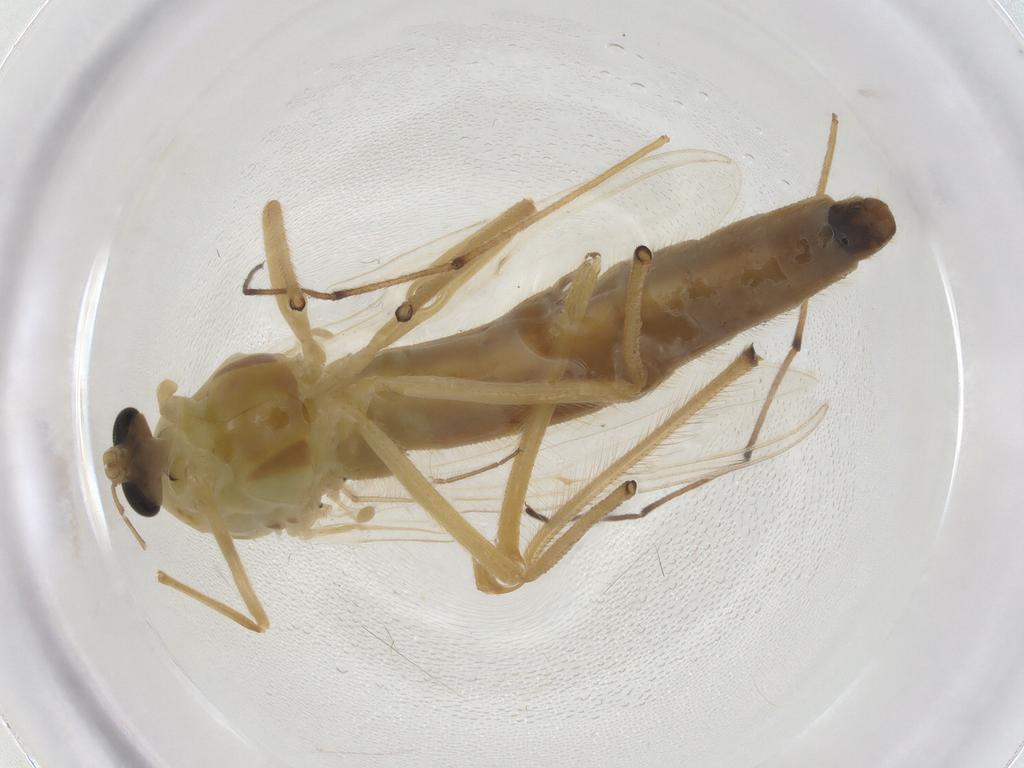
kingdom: Animalia
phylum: Arthropoda
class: Insecta
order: Diptera
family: Chironomidae
